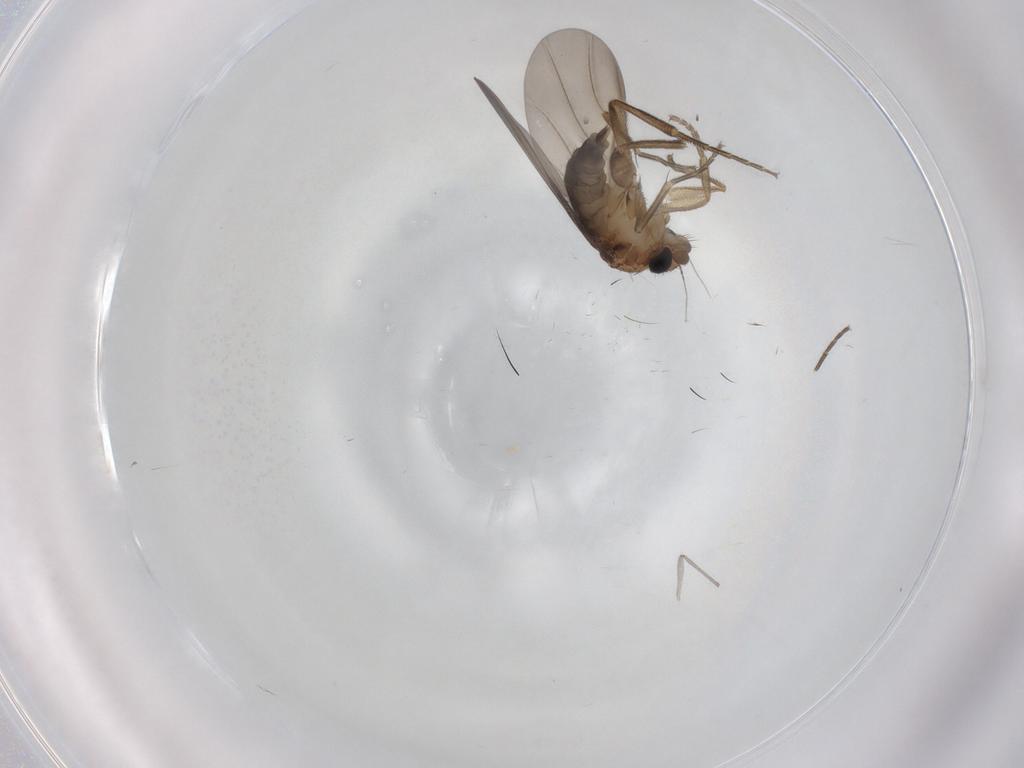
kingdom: Animalia
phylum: Arthropoda
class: Insecta
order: Diptera
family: Phoridae
